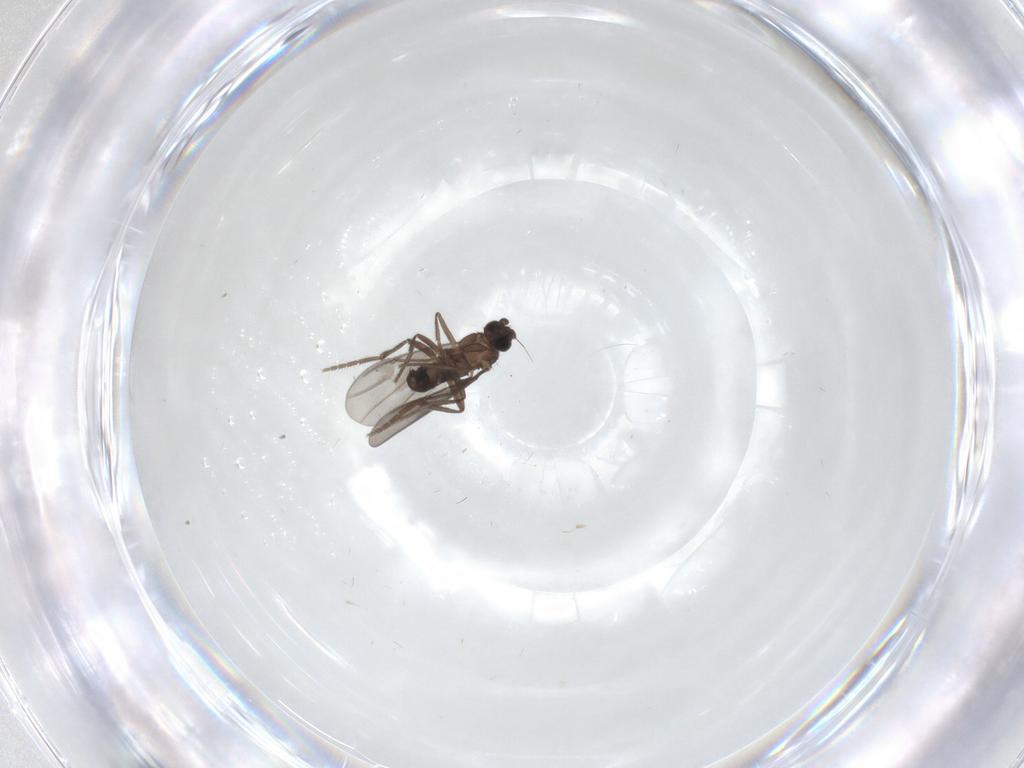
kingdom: Animalia
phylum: Arthropoda
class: Insecta
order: Diptera
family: Phoridae
